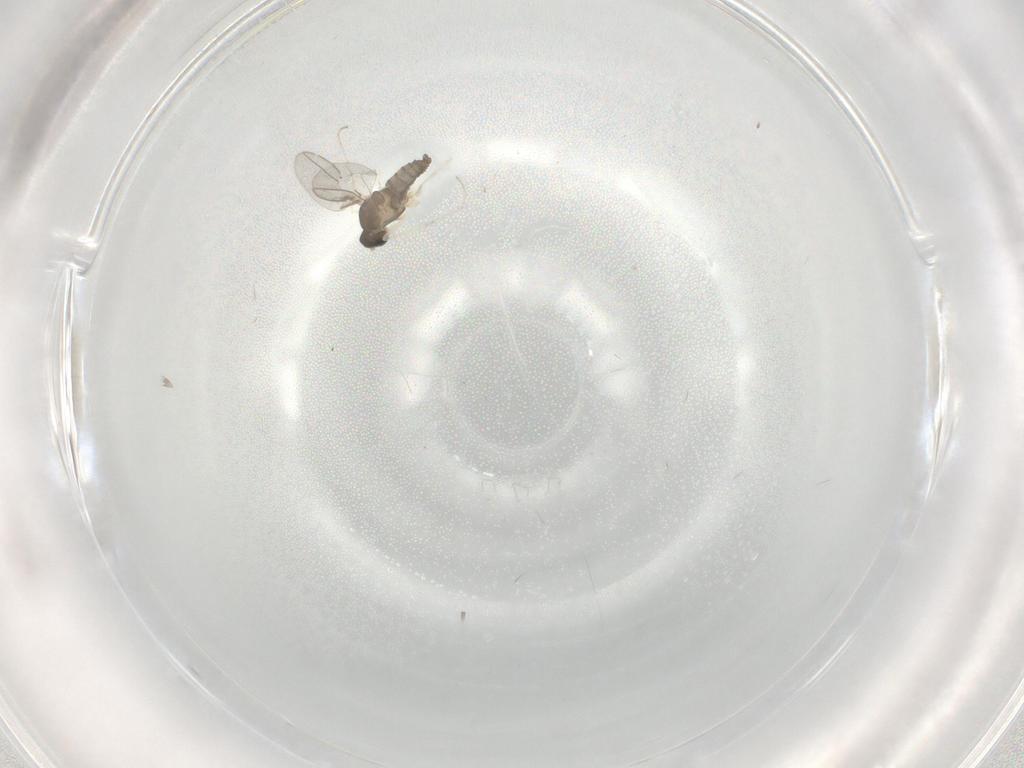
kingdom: Animalia
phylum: Arthropoda
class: Insecta
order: Diptera
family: Cecidomyiidae
